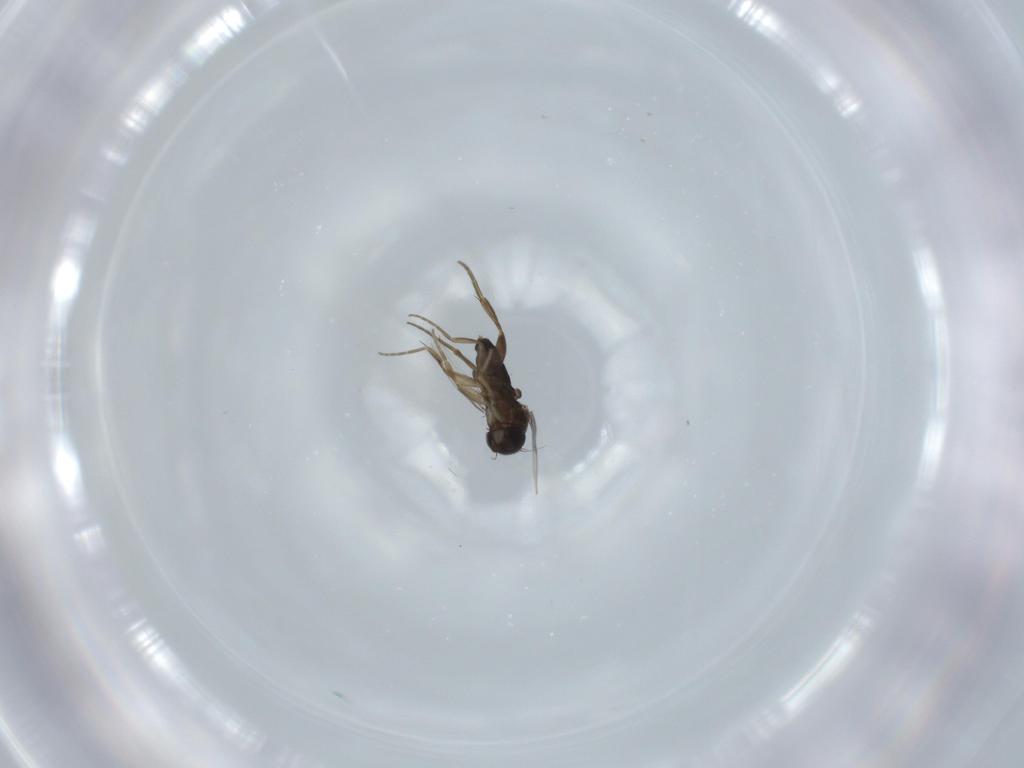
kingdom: Animalia
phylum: Arthropoda
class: Insecta
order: Diptera
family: Phoridae
